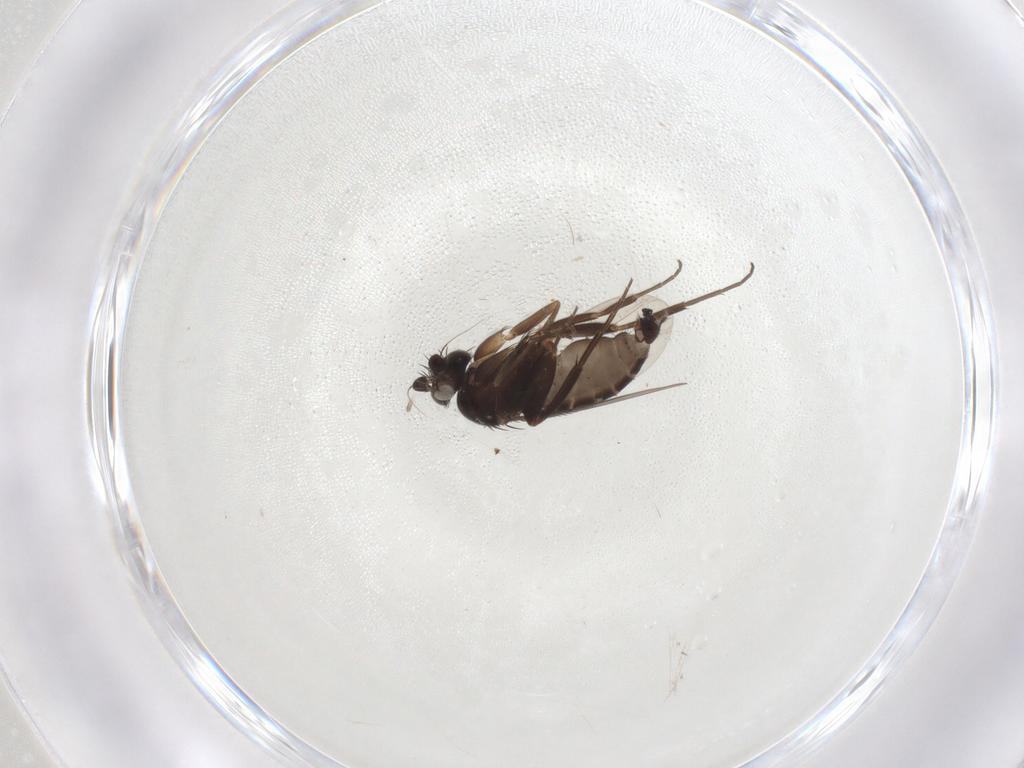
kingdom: Animalia
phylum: Arthropoda
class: Insecta
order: Diptera
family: Phoridae
